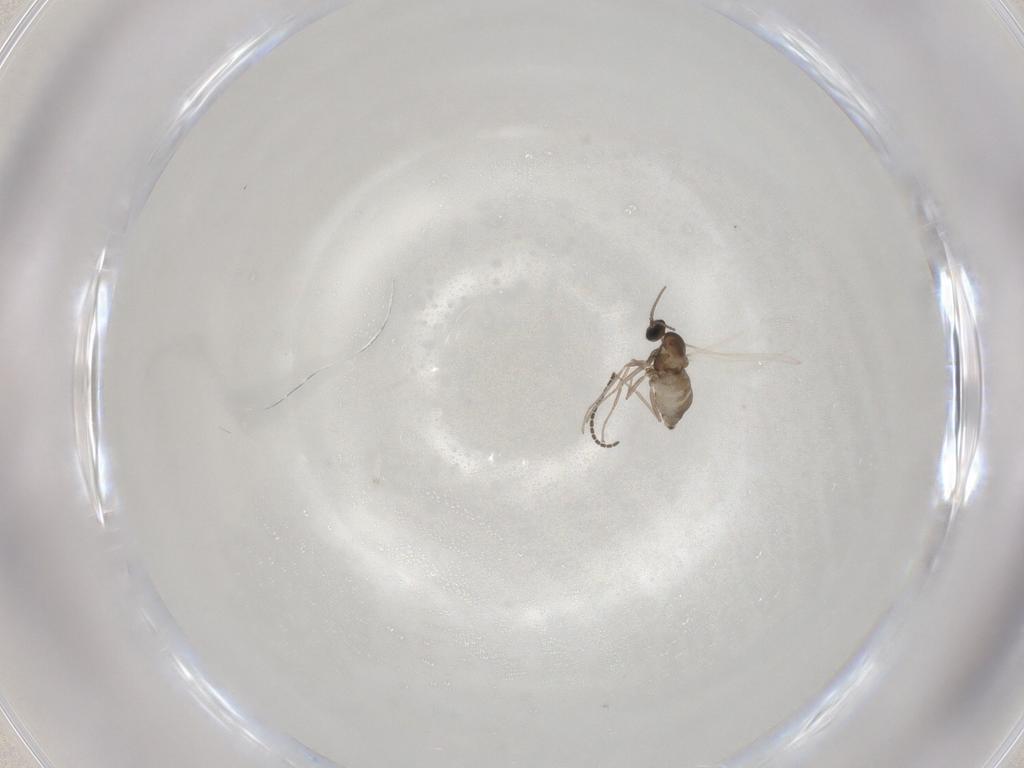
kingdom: Animalia
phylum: Arthropoda
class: Insecta
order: Diptera
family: Cecidomyiidae
